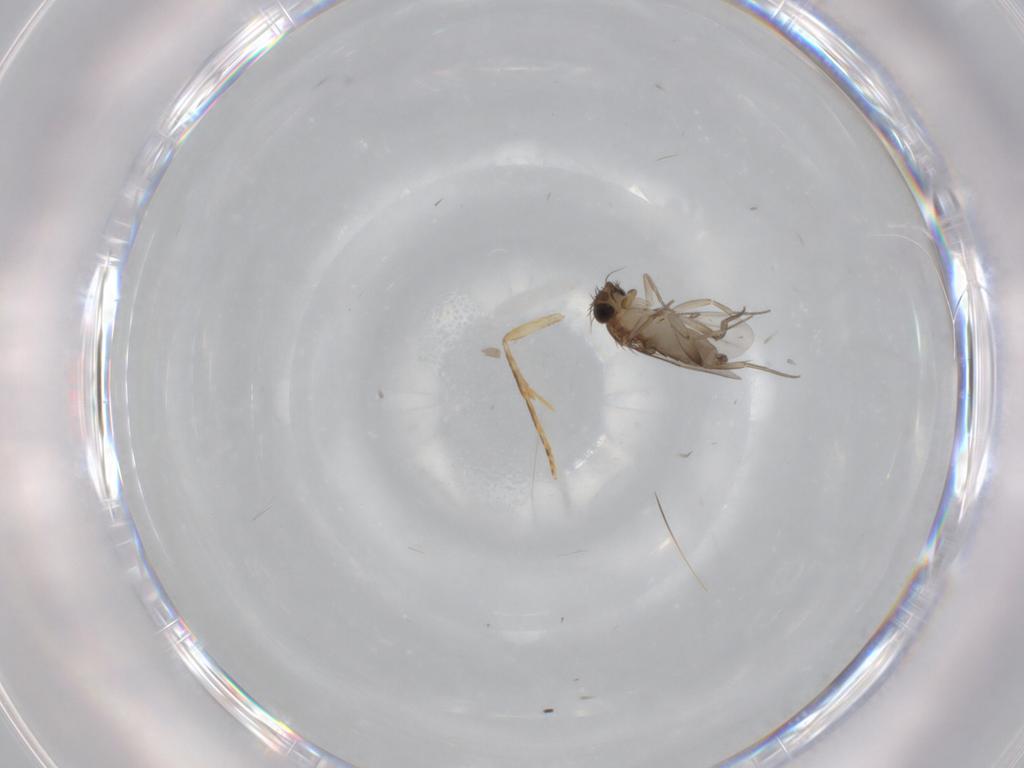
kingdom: Animalia
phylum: Arthropoda
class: Insecta
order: Diptera
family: Phoridae
